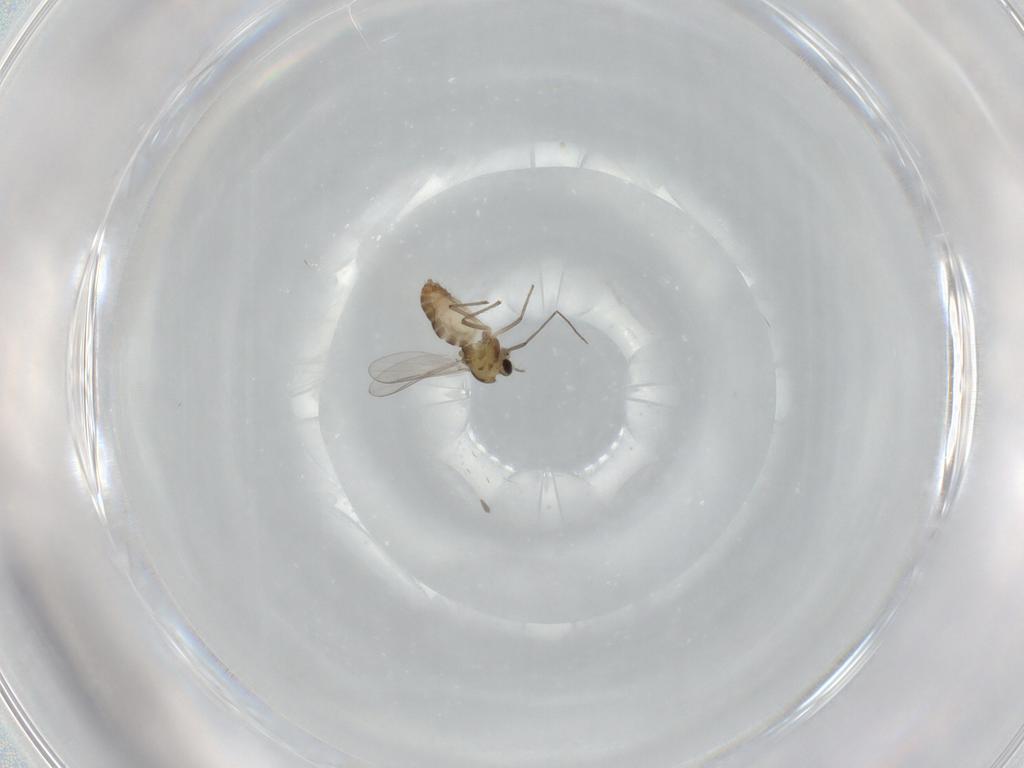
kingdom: Animalia
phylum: Arthropoda
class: Insecta
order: Diptera
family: Chironomidae
